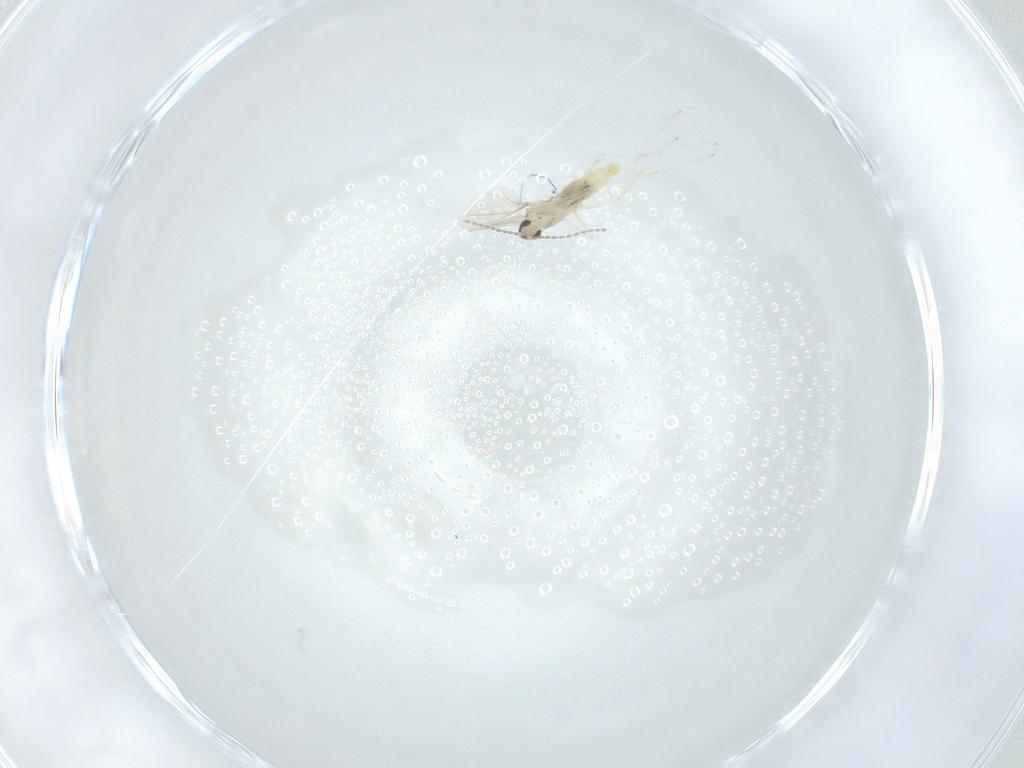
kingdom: Animalia
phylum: Arthropoda
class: Insecta
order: Diptera
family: Cecidomyiidae
